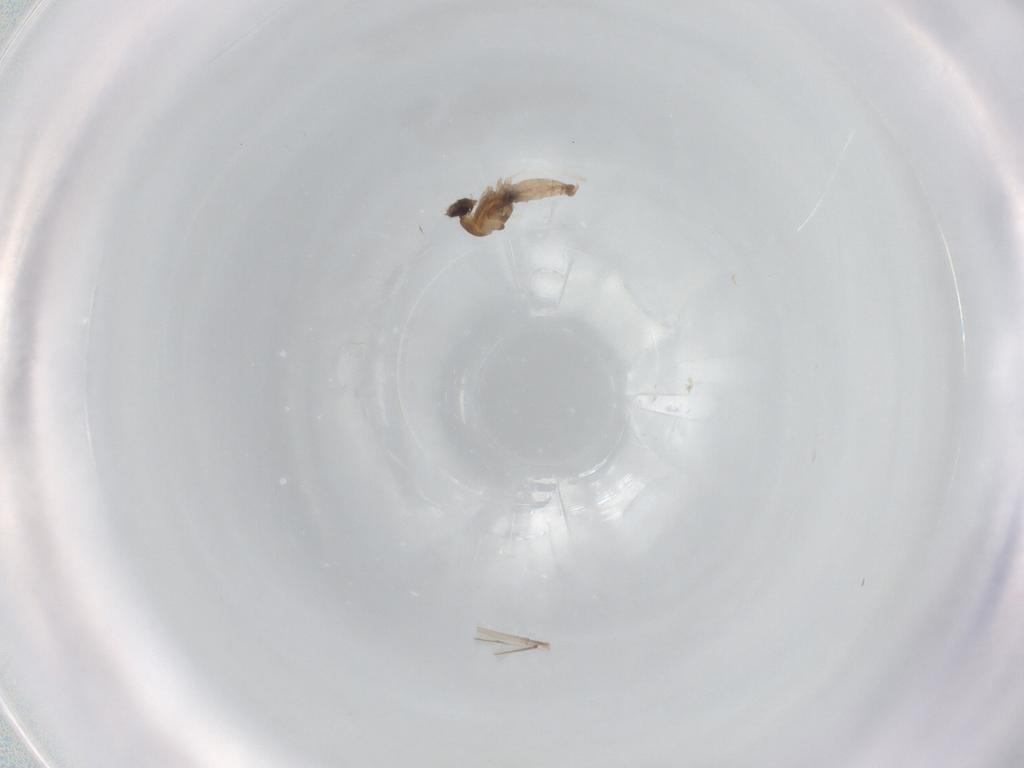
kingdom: Animalia
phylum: Arthropoda
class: Insecta
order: Diptera
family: Cecidomyiidae
